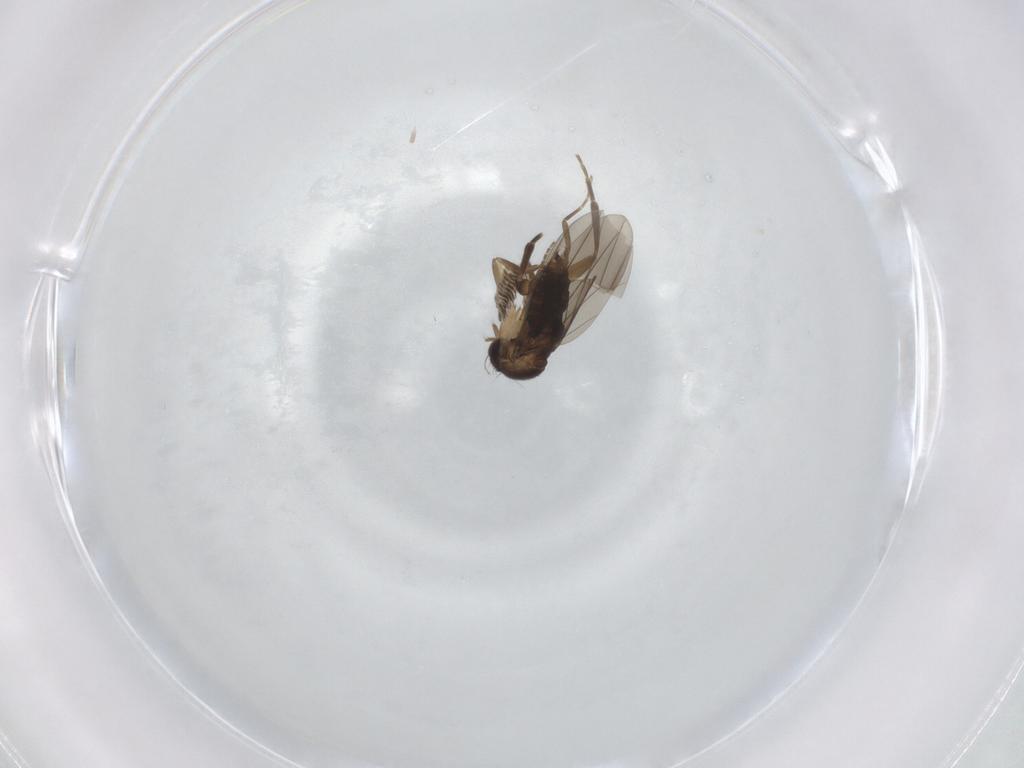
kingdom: Animalia
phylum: Arthropoda
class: Insecta
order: Diptera
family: Phoridae
